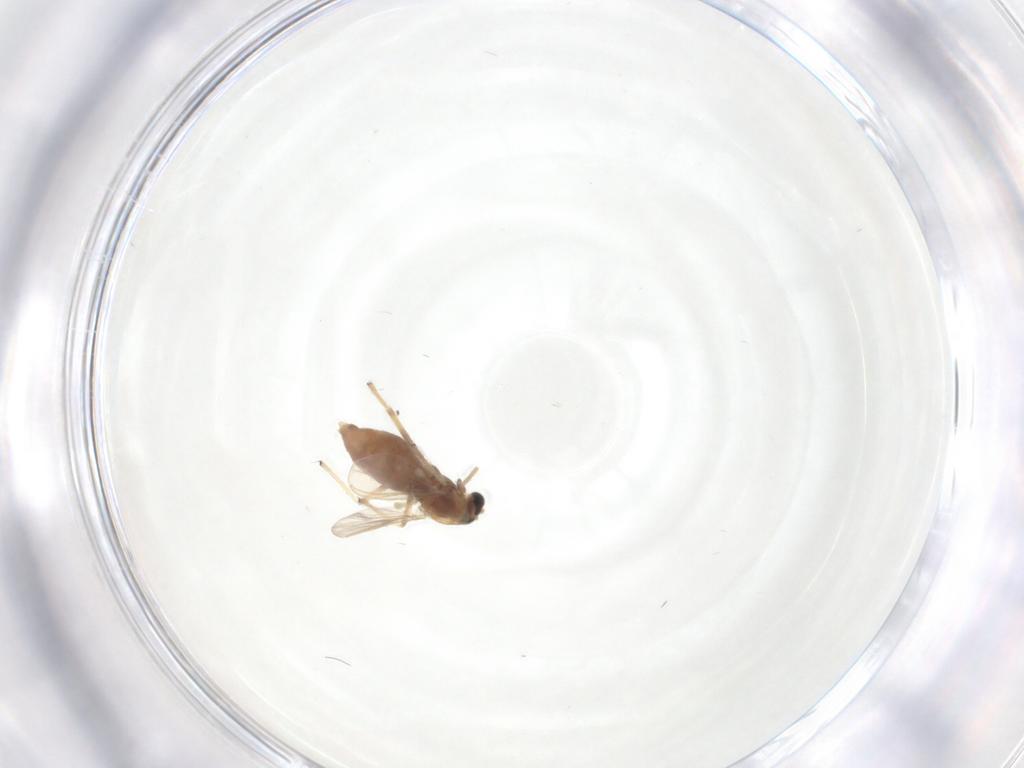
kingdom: Animalia
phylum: Arthropoda
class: Insecta
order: Diptera
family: Chironomidae
